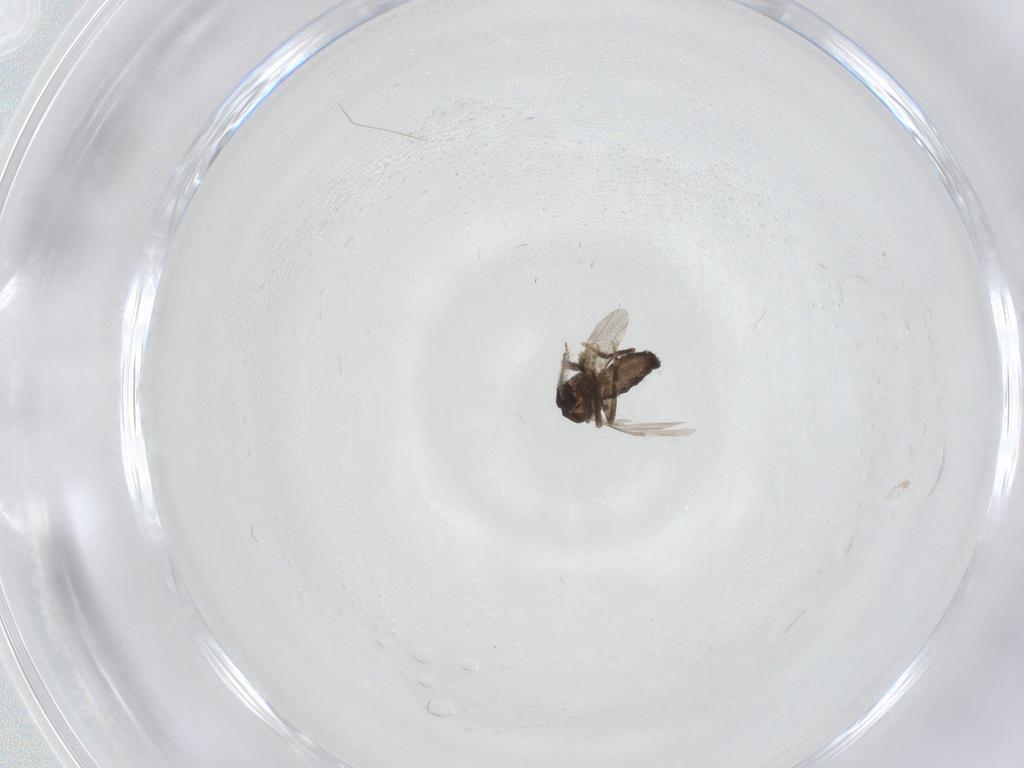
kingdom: Animalia
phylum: Arthropoda
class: Insecta
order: Diptera
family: Ceratopogonidae
